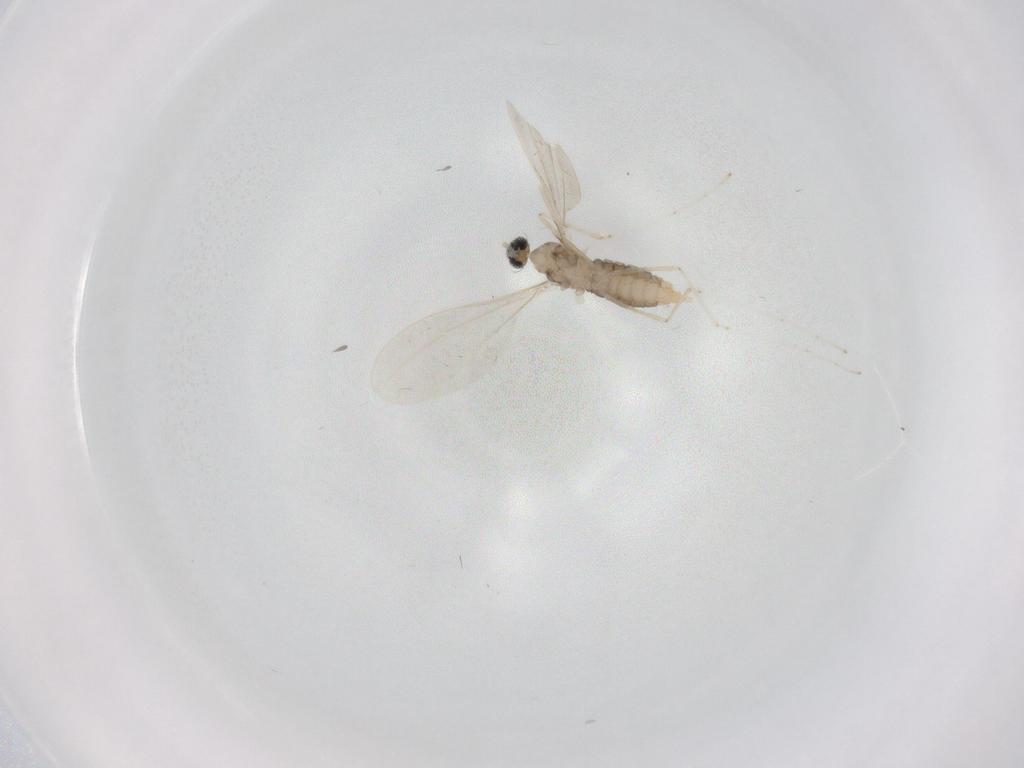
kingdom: Animalia
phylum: Arthropoda
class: Insecta
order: Diptera
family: Cecidomyiidae
